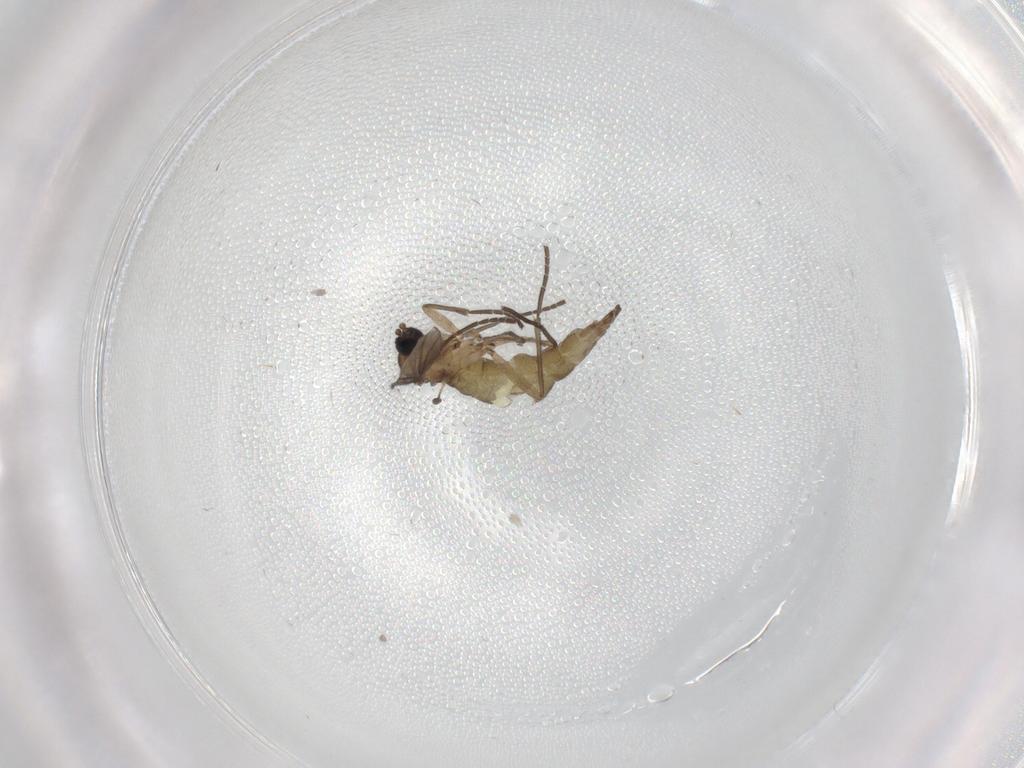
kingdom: Animalia
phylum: Arthropoda
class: Insecta
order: Diptera
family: Sciaridae
